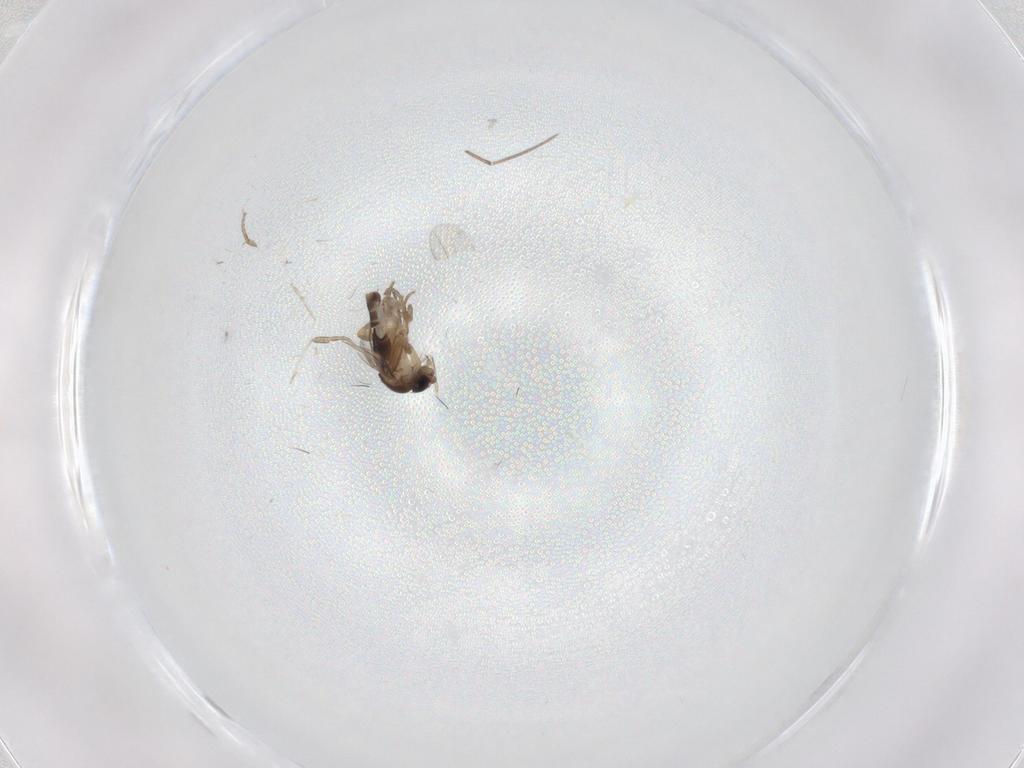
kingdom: Animalia
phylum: Arthropoda
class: Insecta
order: Diptera
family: Phoridae
